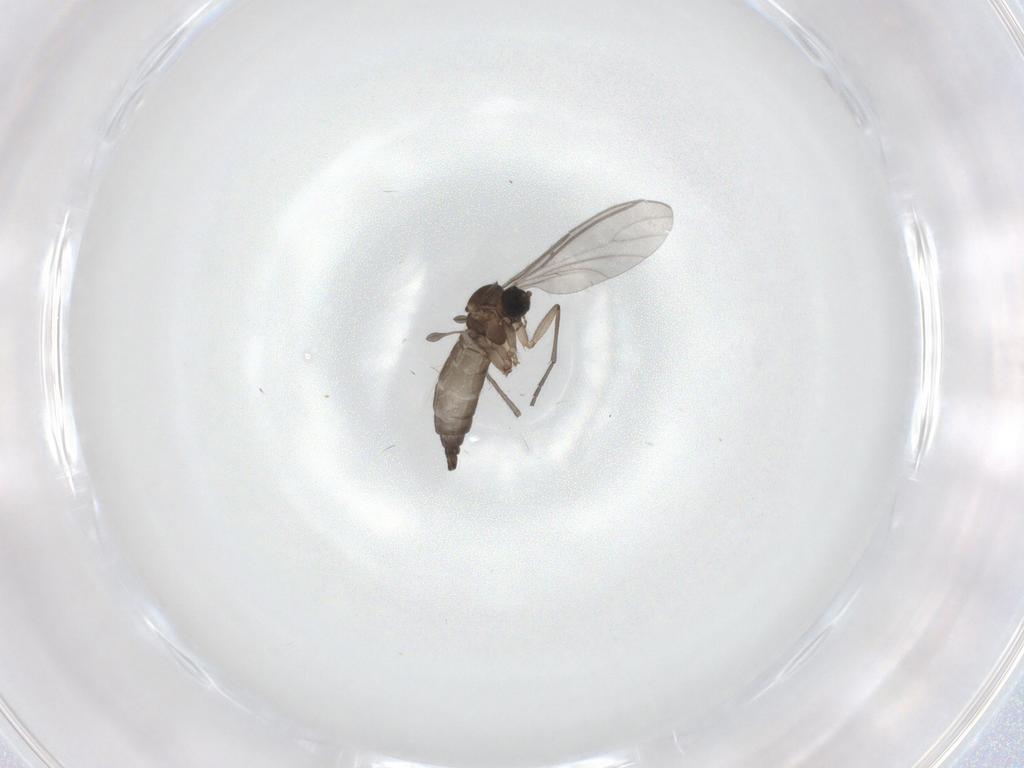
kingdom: Animalia
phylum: Arthropoda
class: Insecta
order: Diptera
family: Sciaridae
